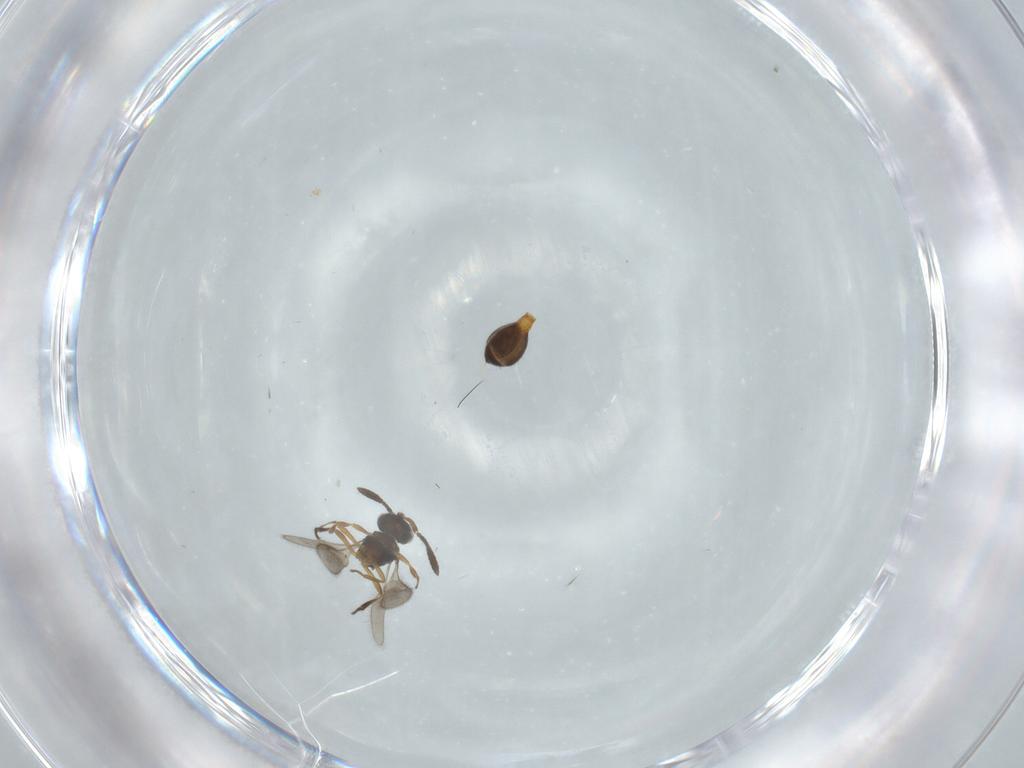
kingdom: Animalia
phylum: Arthropoda
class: Insecta
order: Hymenoptera
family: Scelionidae
